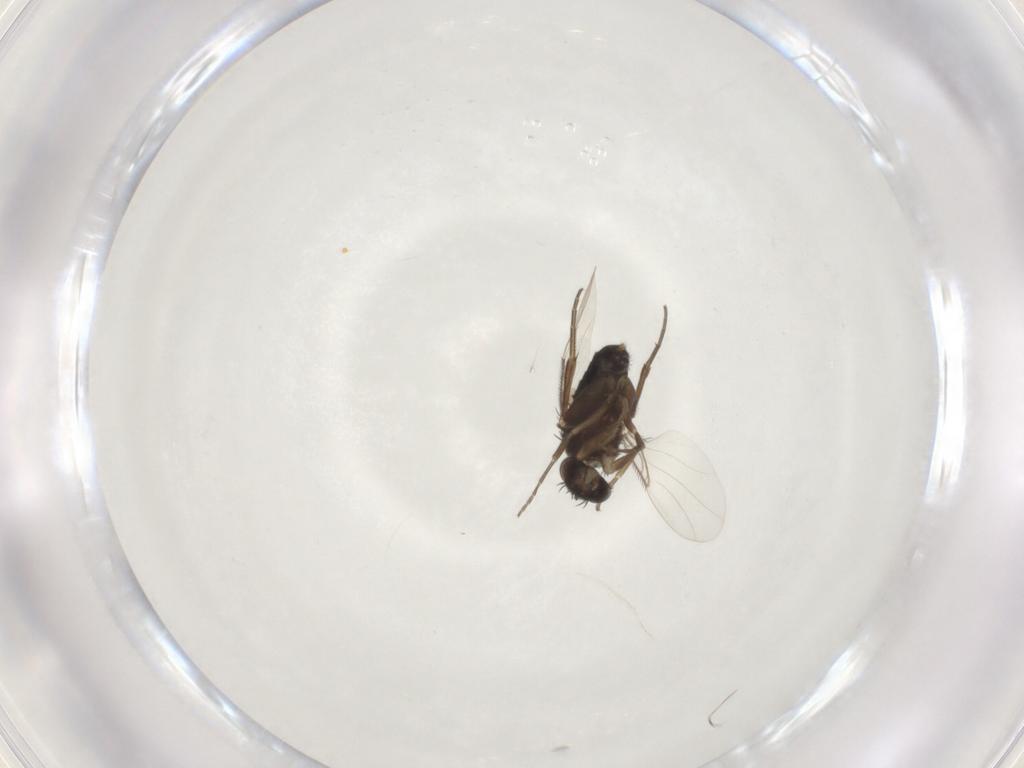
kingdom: Animalia
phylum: Arthropoda
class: Insecta
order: Diptera
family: Phoridae
